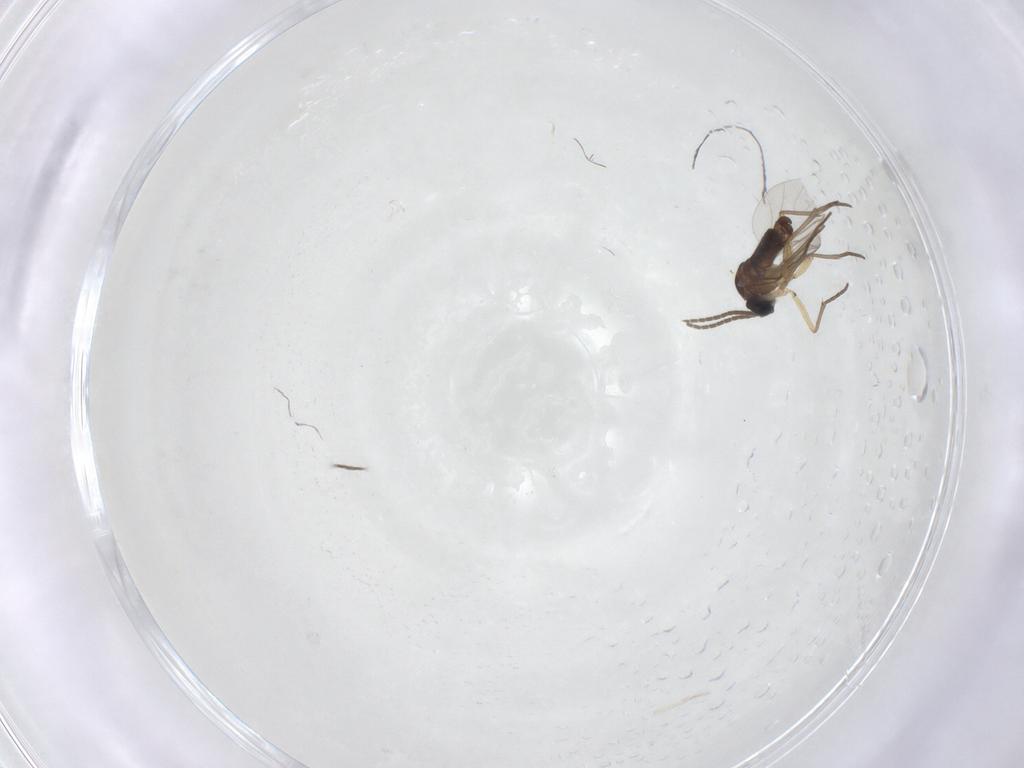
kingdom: Animalia
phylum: Arthropoda
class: Insecta
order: Diptera
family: Sciaridae
